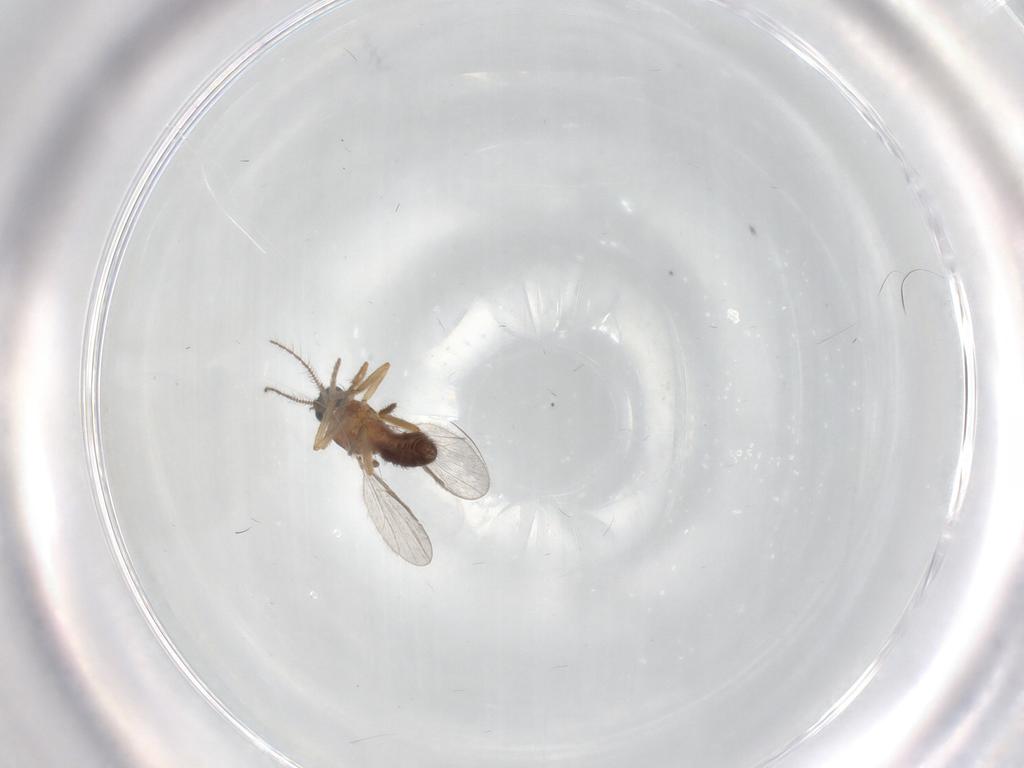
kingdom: Animalia
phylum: Arthropoda
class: Insecta
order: Diptera
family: Ceratopogonidae
